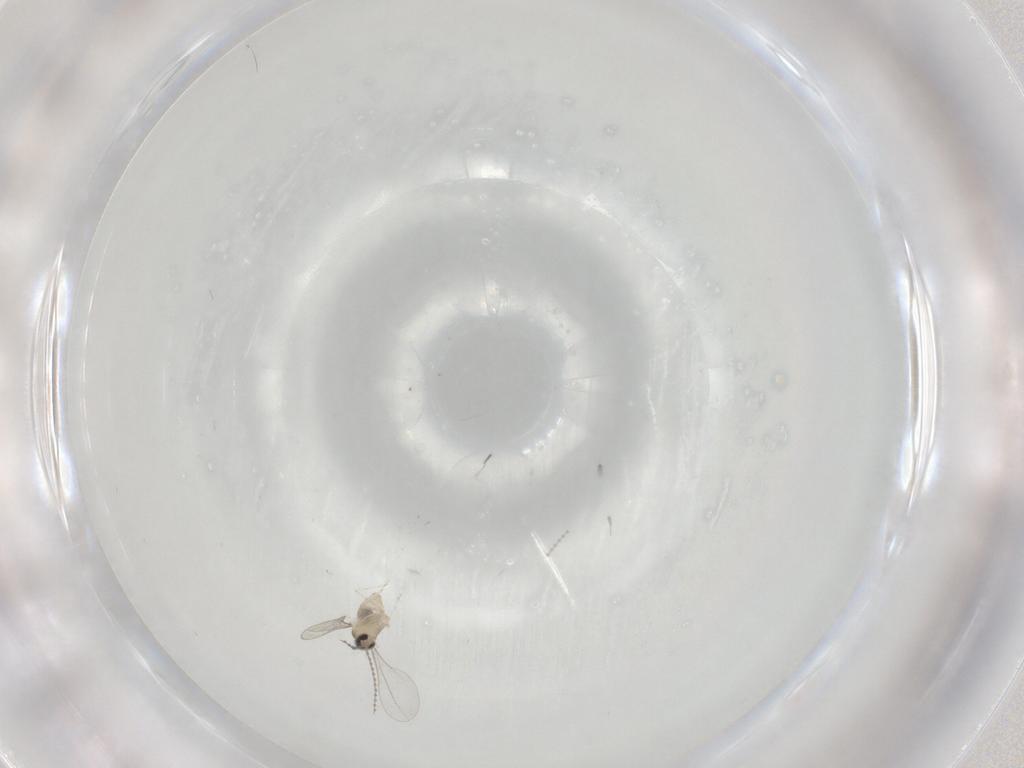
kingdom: Animalia
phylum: Arthropoda
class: Insecta
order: Diptera
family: Cecidomyiidae
